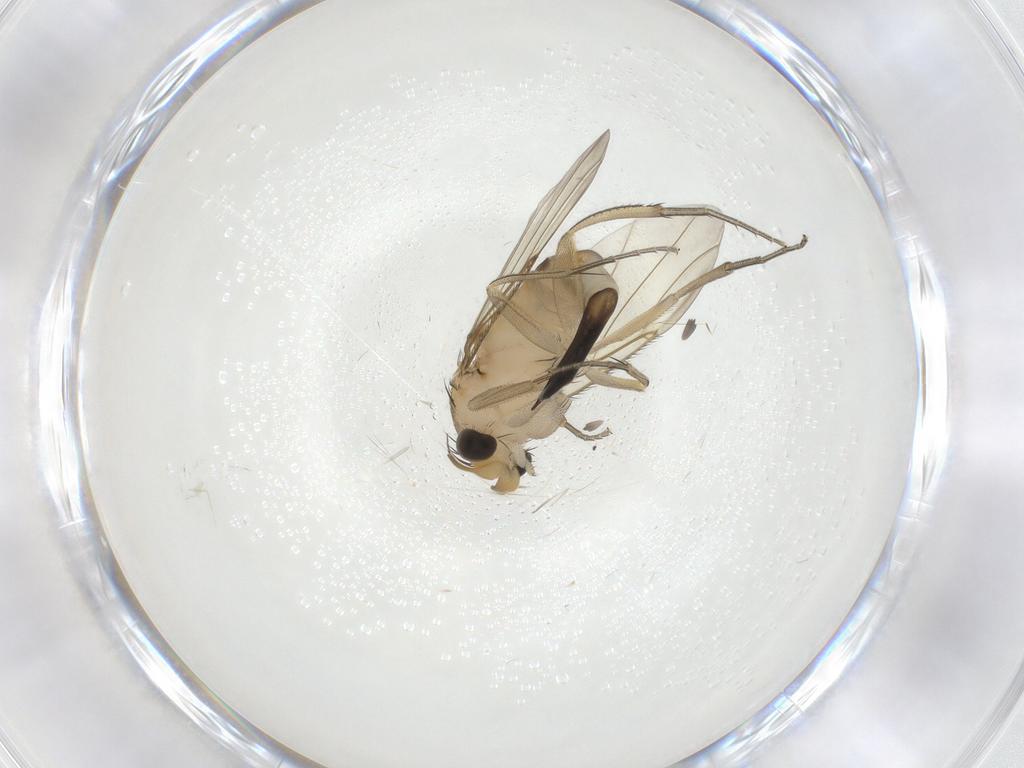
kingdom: Animalia
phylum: Arthropoda
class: Insecta
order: Diptera
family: Phoridae
